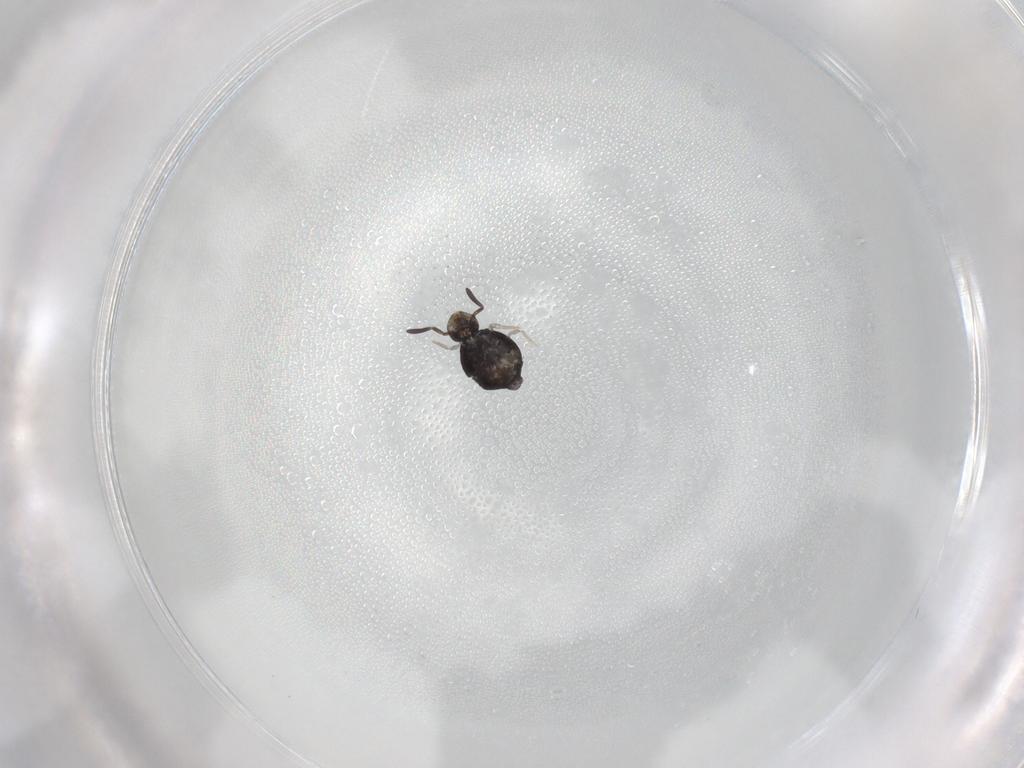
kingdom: Animalia
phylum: Arthropoda
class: Collembola
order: Symphypleona
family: Katiannidae
